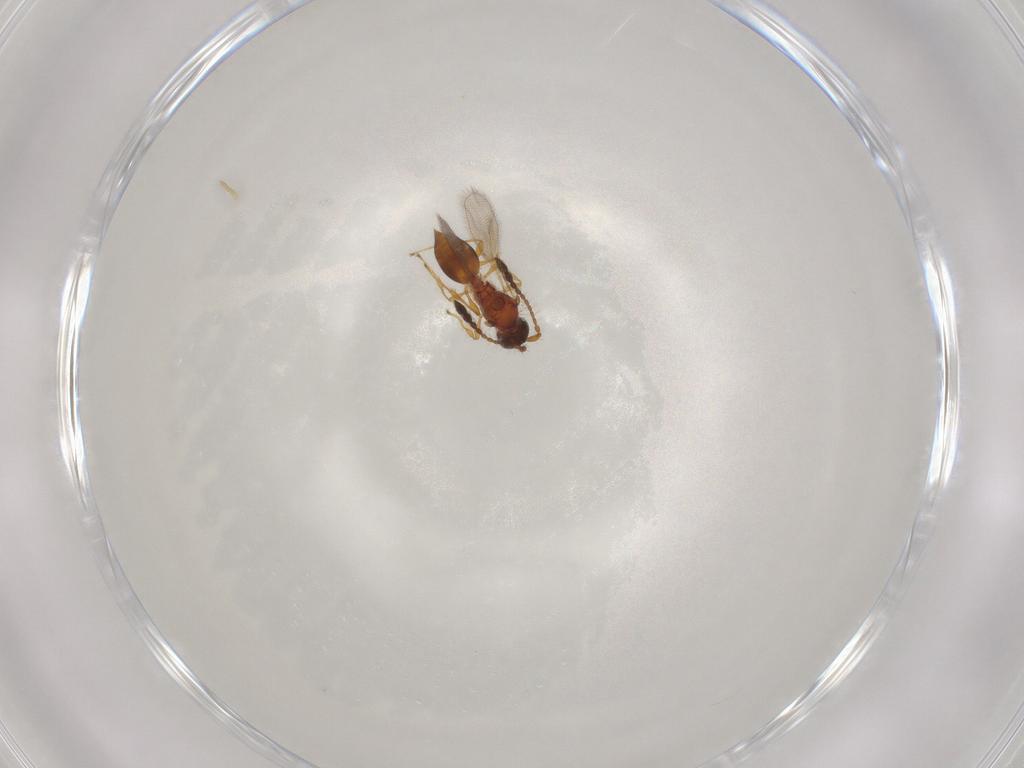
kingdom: Animalia
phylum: Arthropoda
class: Insecta
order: Hymenoptera
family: Braconidae
